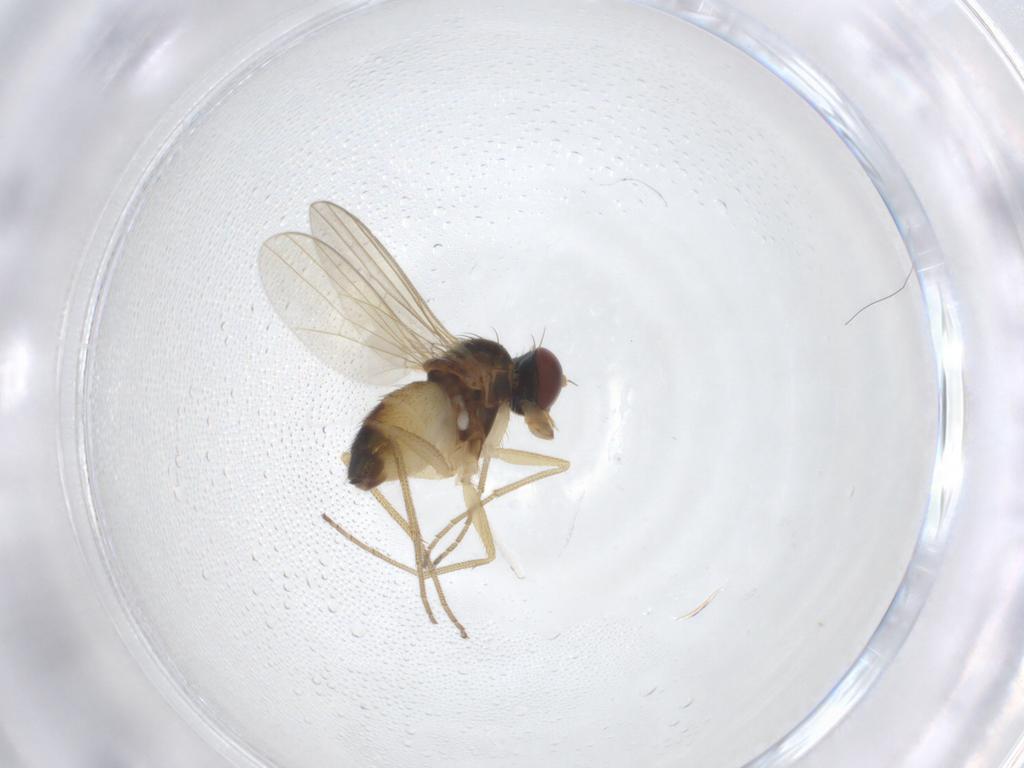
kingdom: Animalia
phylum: Arthropoda
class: Insecta
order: Diptera
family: Dolichopodidae
